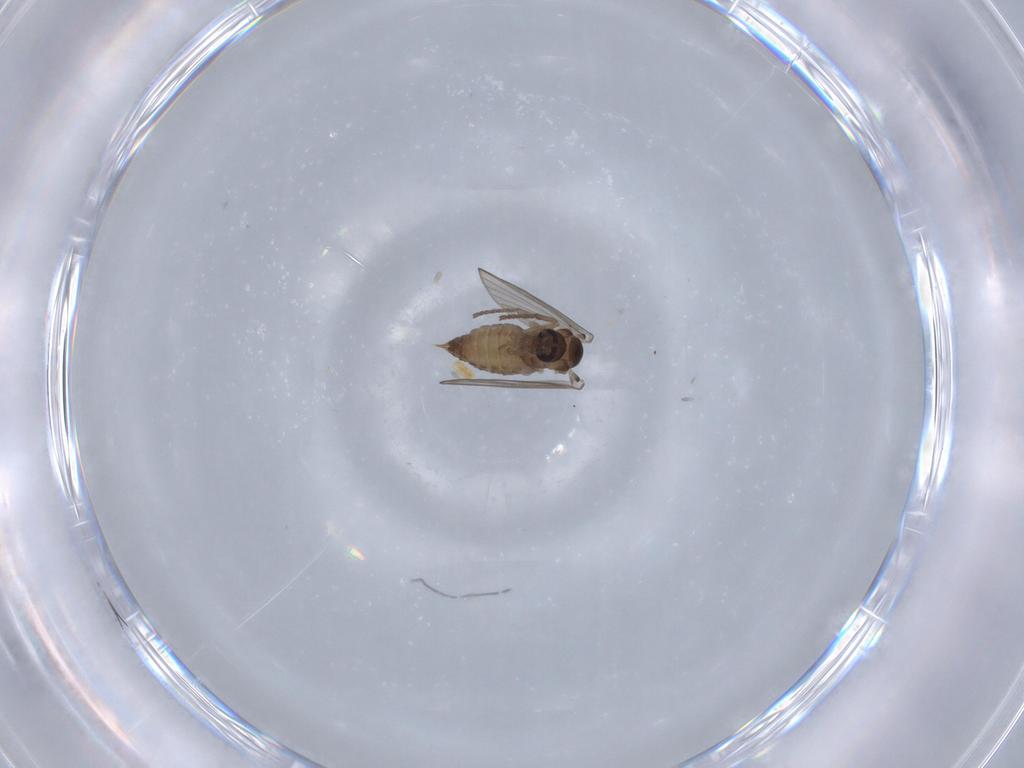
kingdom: Animalia
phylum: Arthropoda
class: Insecta
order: Diptera
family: Psychodidae
